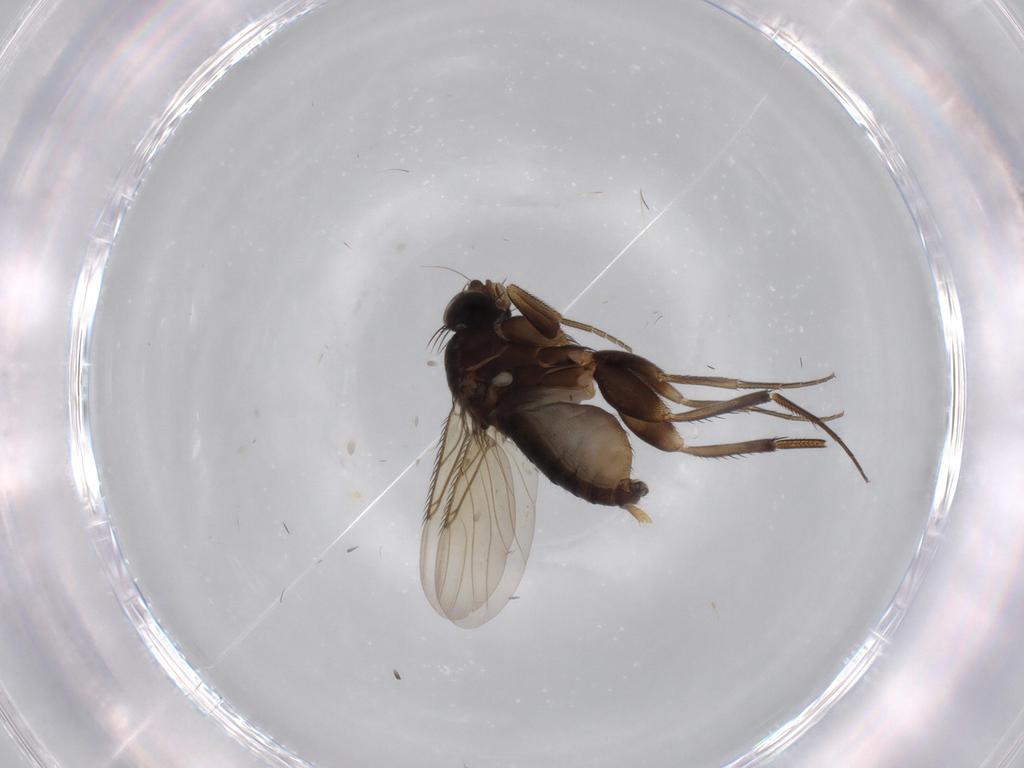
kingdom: Animalia
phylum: Arthropoda
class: Insecta
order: Diptera
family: Phoridae
